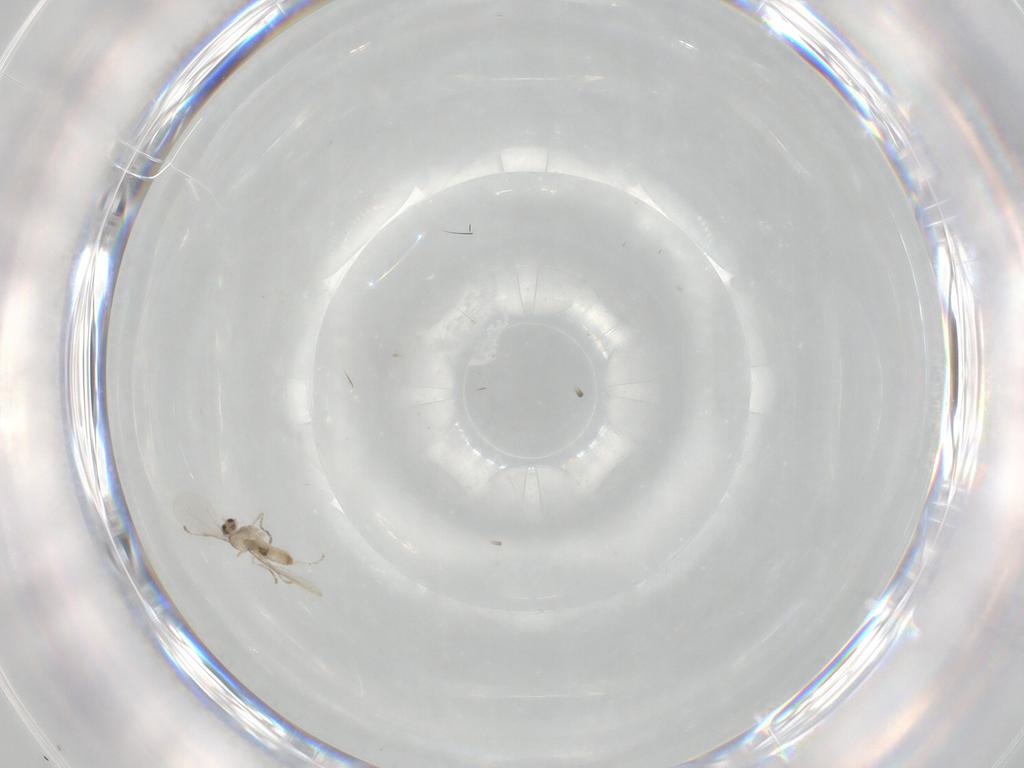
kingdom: Animalia
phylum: Arthropoda
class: Insecta
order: Diptera
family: Cecidomyiidae
